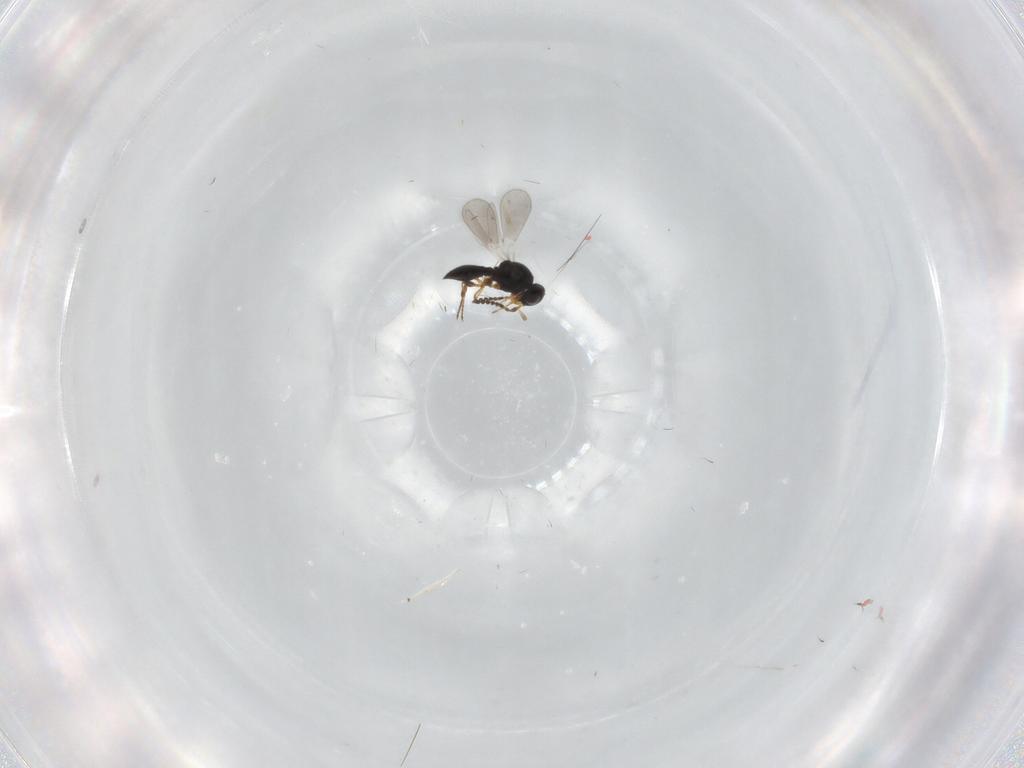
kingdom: Animalia
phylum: Arthropoda
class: Insecta
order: Hymenoptera
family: Platygastridae
